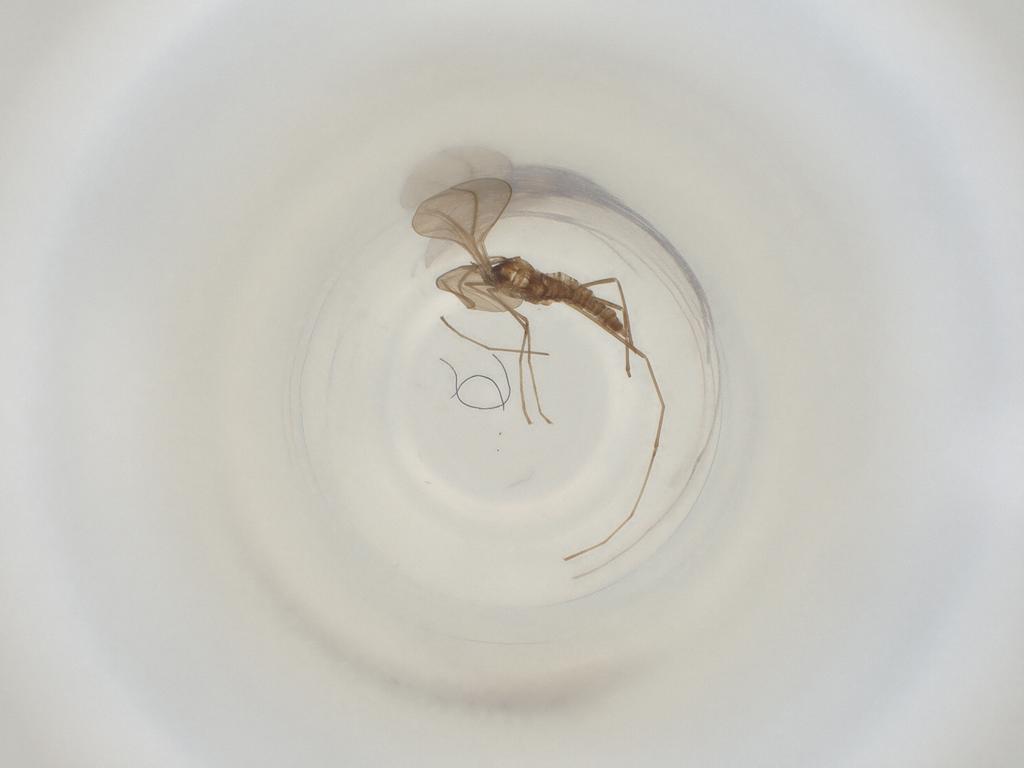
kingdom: Animalia
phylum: Arthropoda
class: Insecta
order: Diptera
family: Cecidomyiidae
